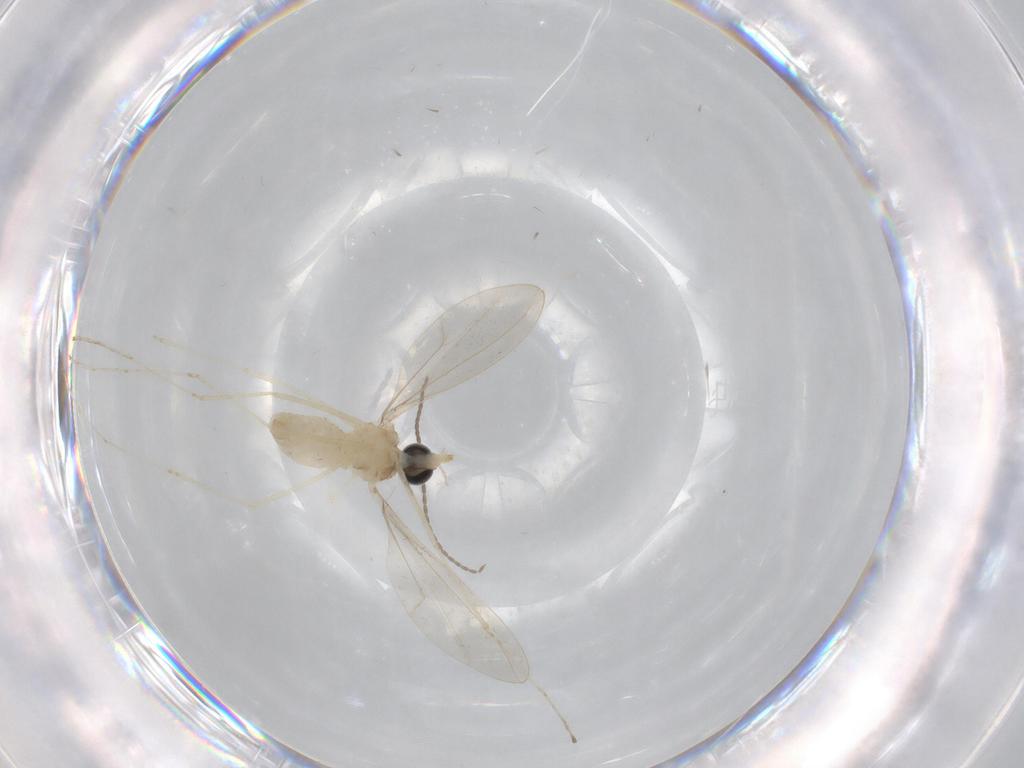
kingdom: Animalia
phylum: Arthropoda
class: Insecta
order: Diptera
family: Cecidomyiidae
